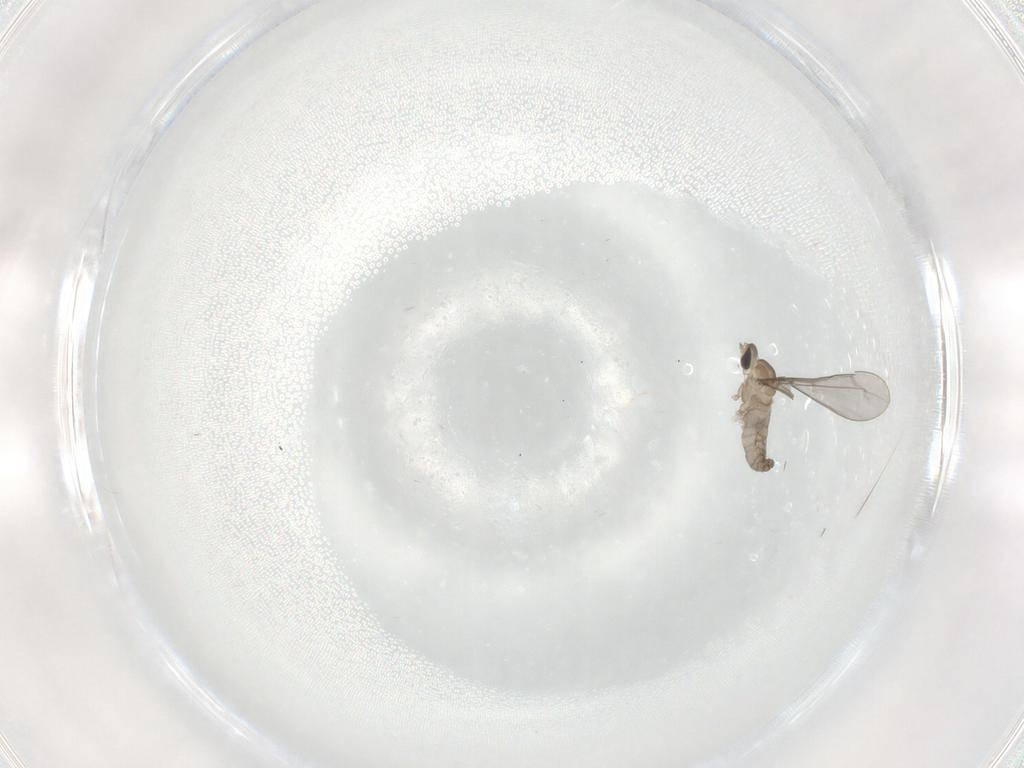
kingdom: Animalia
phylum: Arthropoda
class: Insecta
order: Diptera
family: Cecidomyiidae
